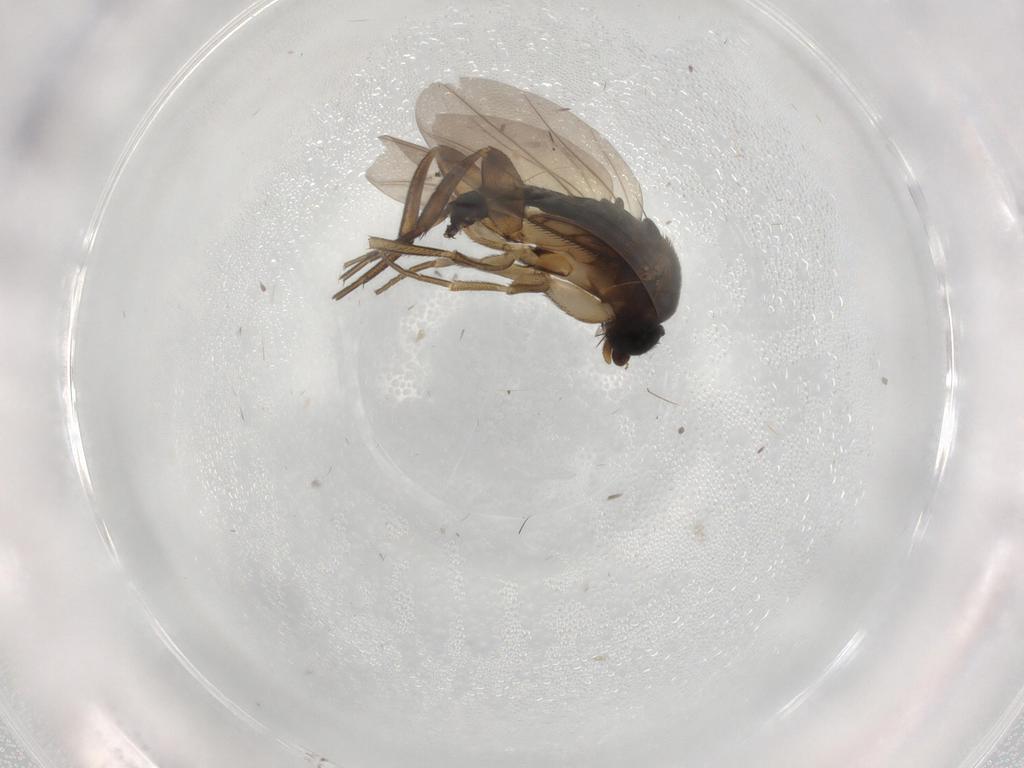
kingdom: Animalia
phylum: Arthropoda
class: Insecta
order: Diptera
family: Phoridae
